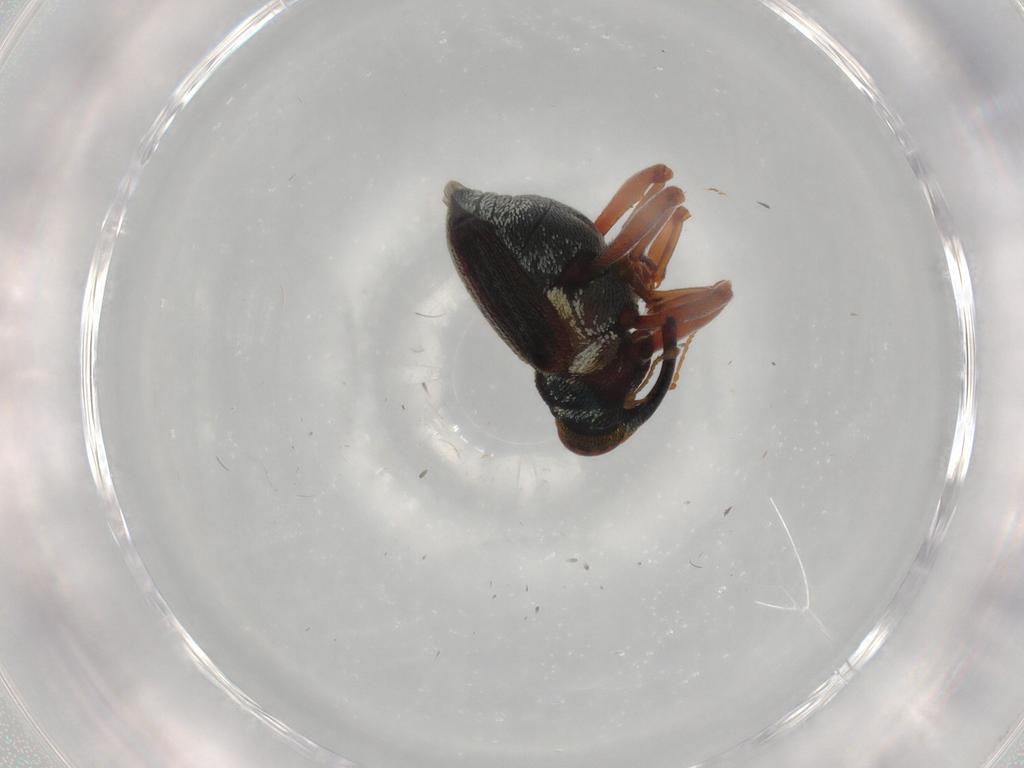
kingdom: Animalia
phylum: Arthropoda
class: Insecta
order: Coleoptera
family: Curculionidae
